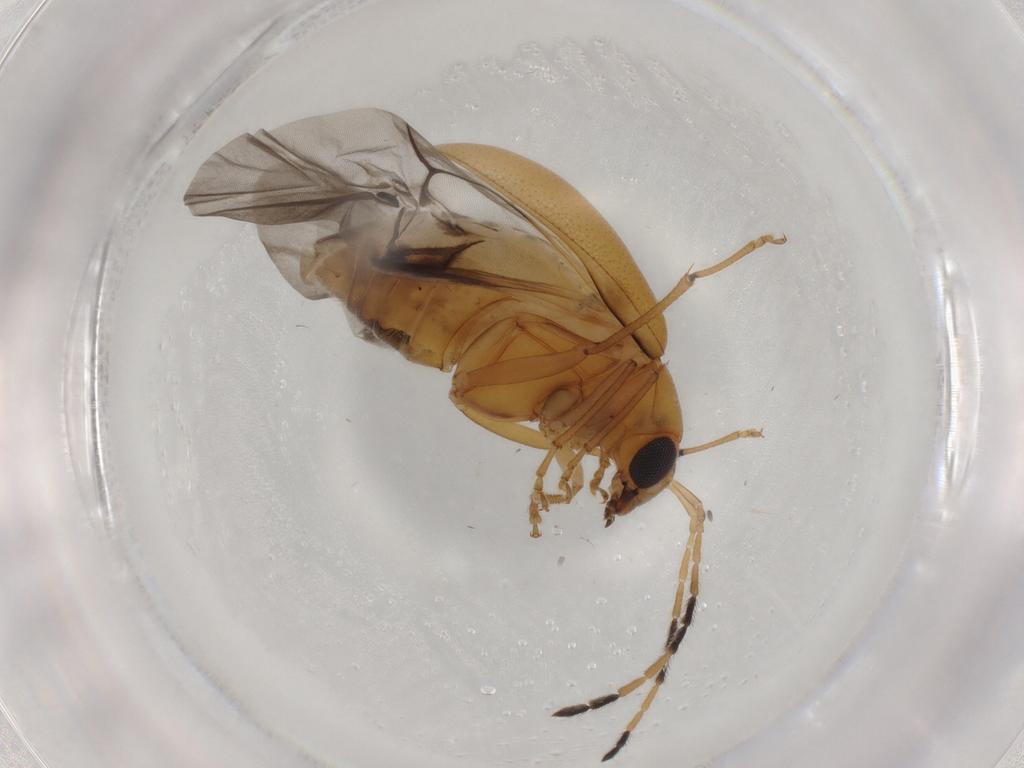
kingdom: Animalia
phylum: Arthropoda
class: Insecta
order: Coleoptera
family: Chrysomelidae
